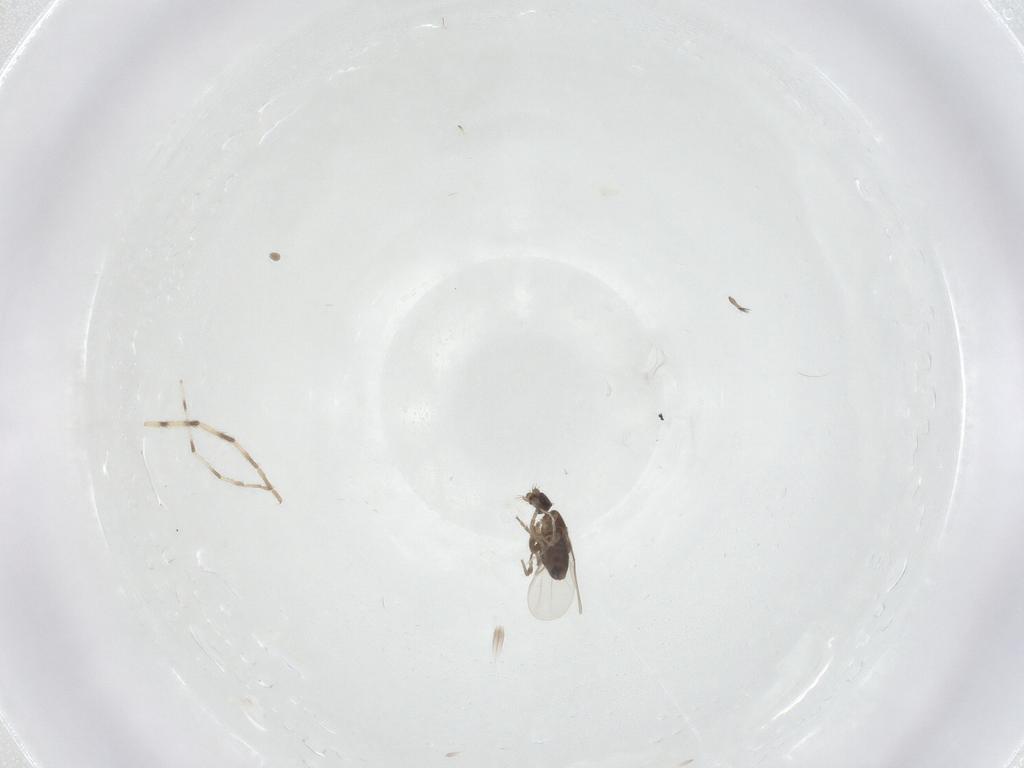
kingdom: Animalia
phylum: Arthropoda
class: Insecta
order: Diptera
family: Phoridae
